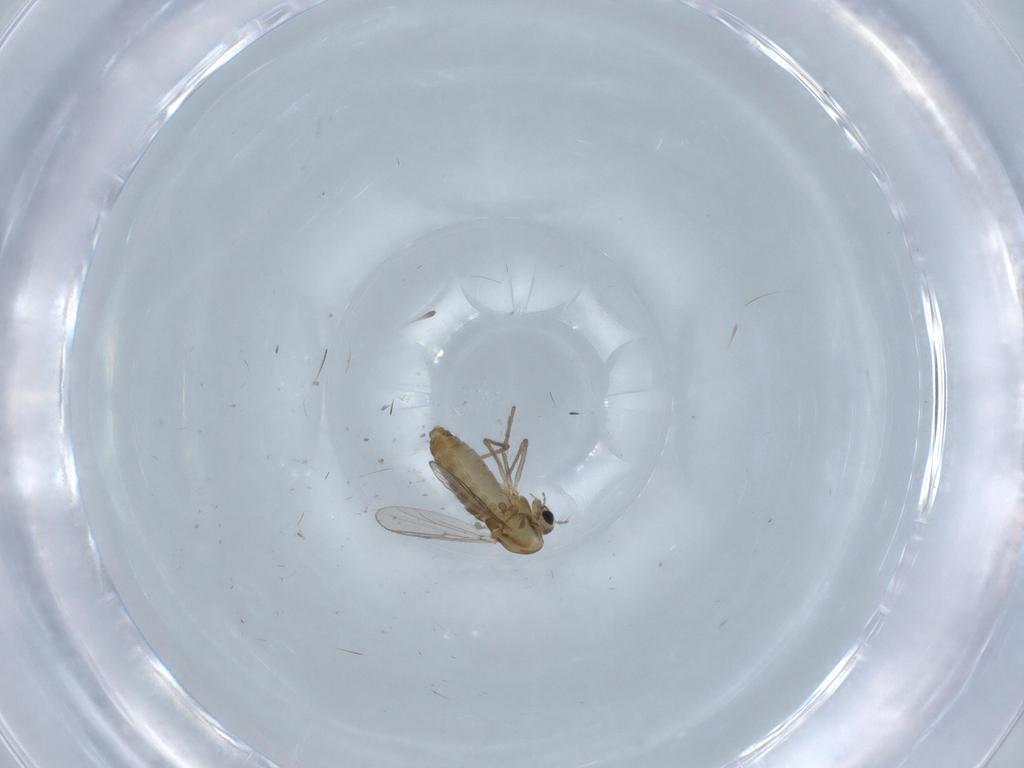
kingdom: Animalia
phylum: Arthropoda
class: Insecta
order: Diptera
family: Chironomidae
